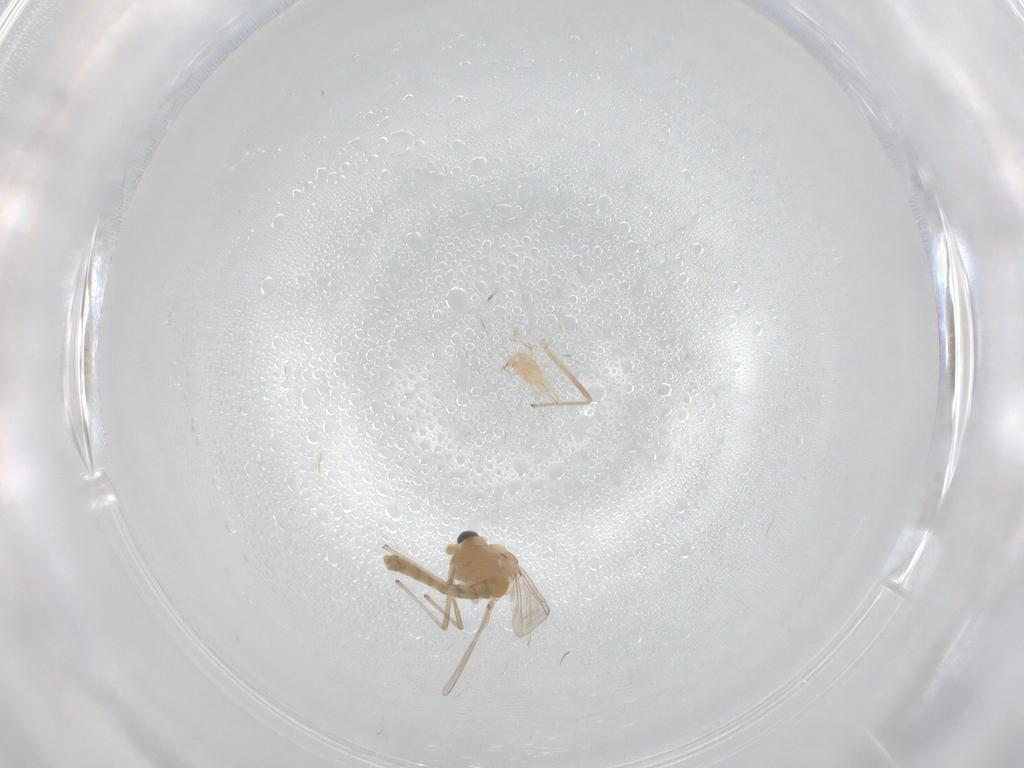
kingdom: Animalia
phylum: Arthropoda
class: Insecta
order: Diptera
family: Chironomidae
